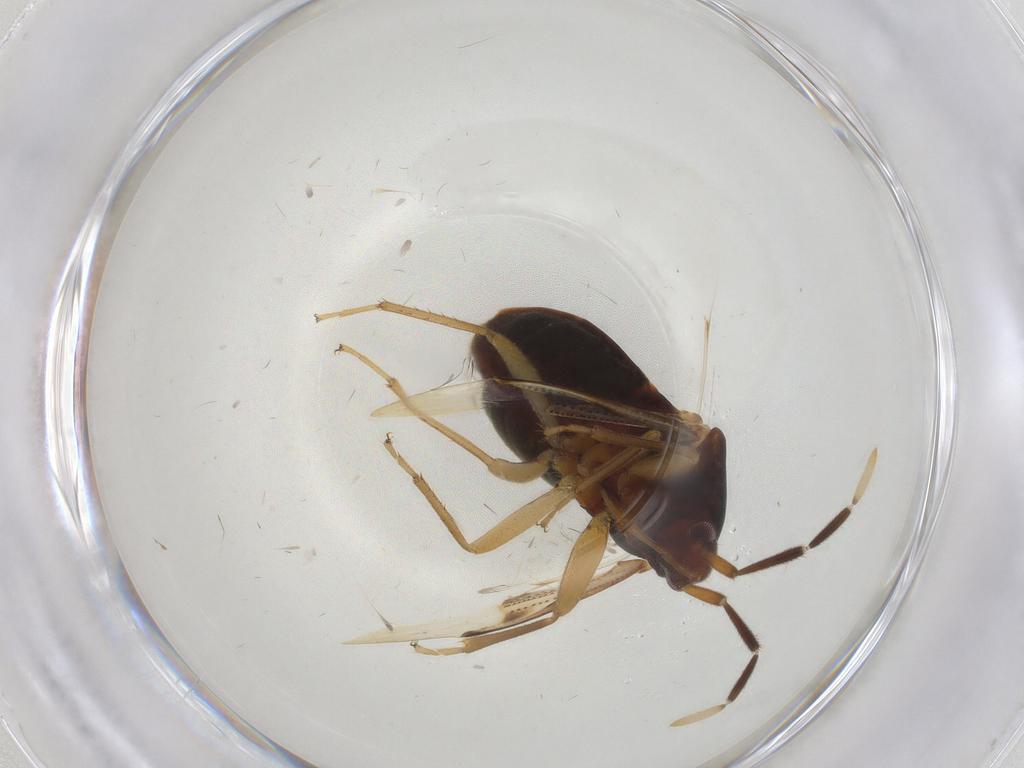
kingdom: Animalia
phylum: Arthropoda
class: Insecta
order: Hemiptera
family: Rhyparochromidae
